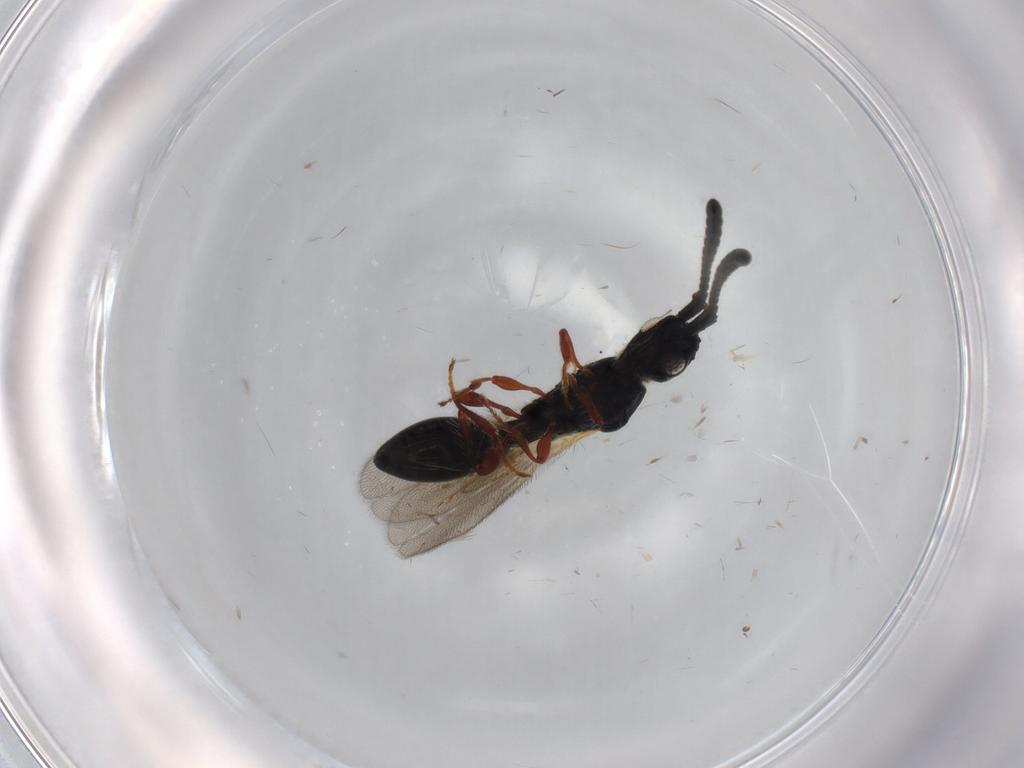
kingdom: Animalia
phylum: Arthropoda
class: Insecta
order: Hymenoptera
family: Diapriidae
